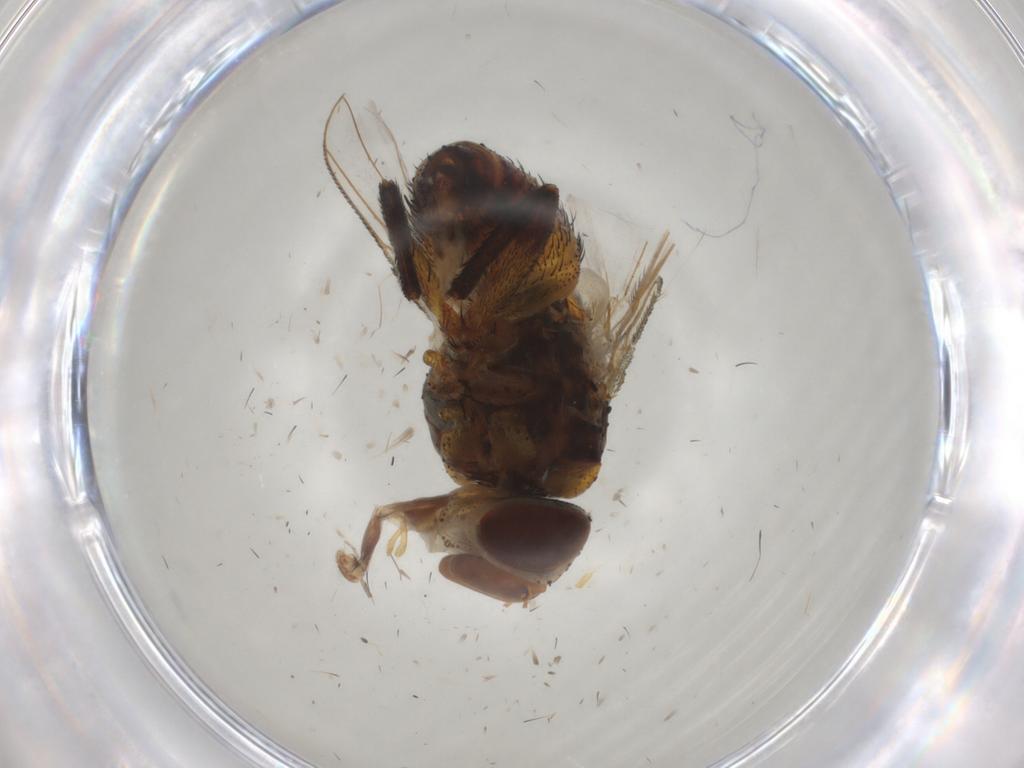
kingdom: Animalia
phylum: Arthropoda
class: Insecta
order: Diptera
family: Glossinidae
